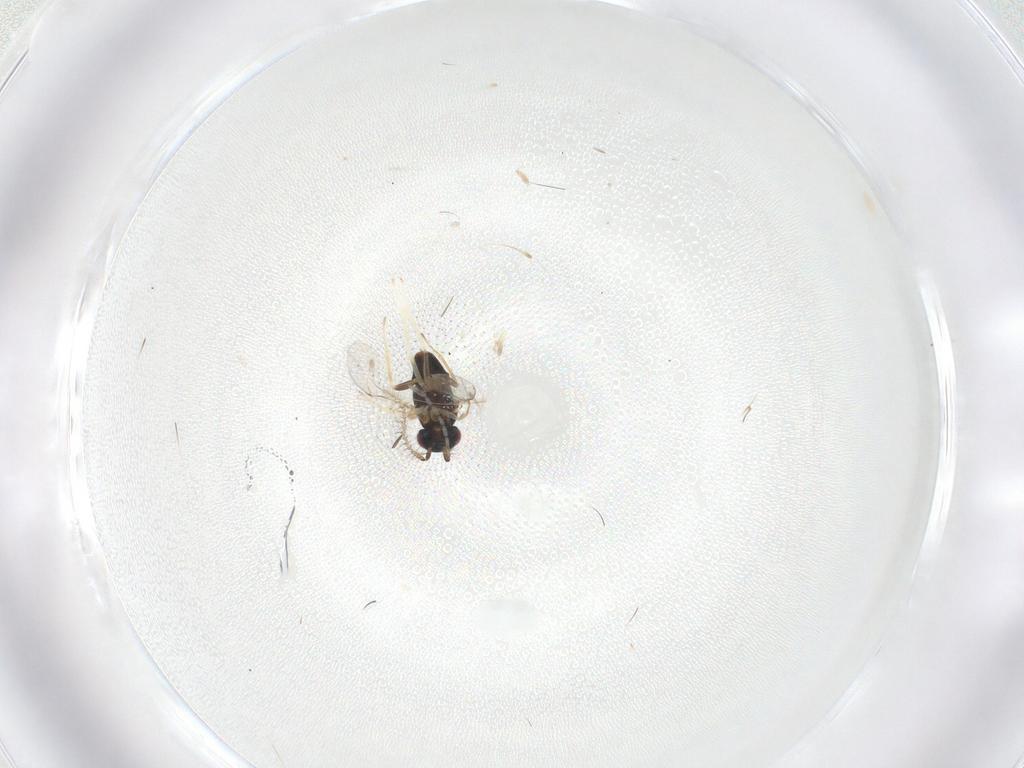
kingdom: Animalia
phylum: Arthropoda
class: Insecta
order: Hymenoptera
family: Encyrtidae
